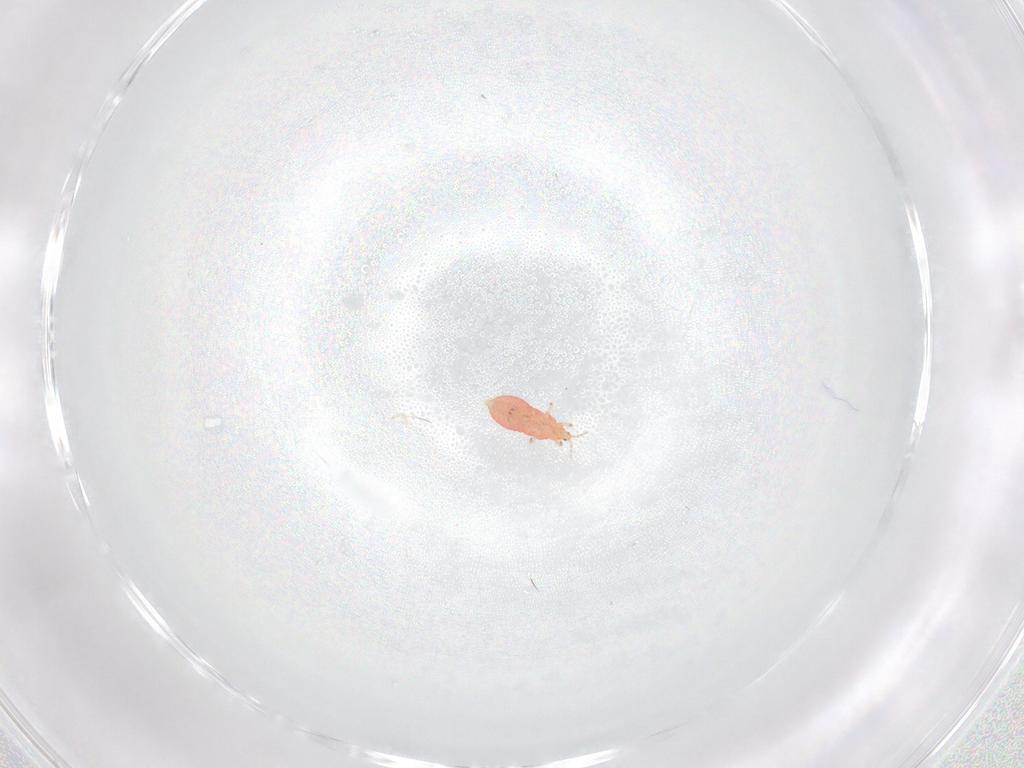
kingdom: Animalia
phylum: Arthropoda
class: Insecta
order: Thysanoptera
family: Heterothripidae
